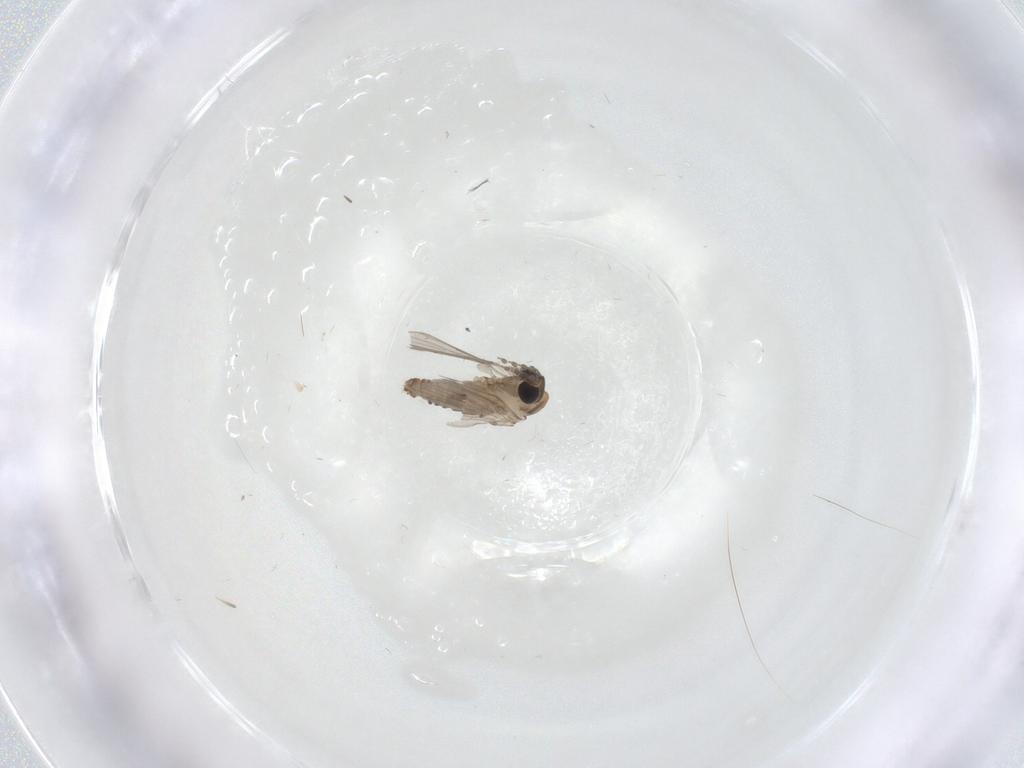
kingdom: Animalia
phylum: Arthropoda
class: Insecta
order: Diptera
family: Psychodidae
